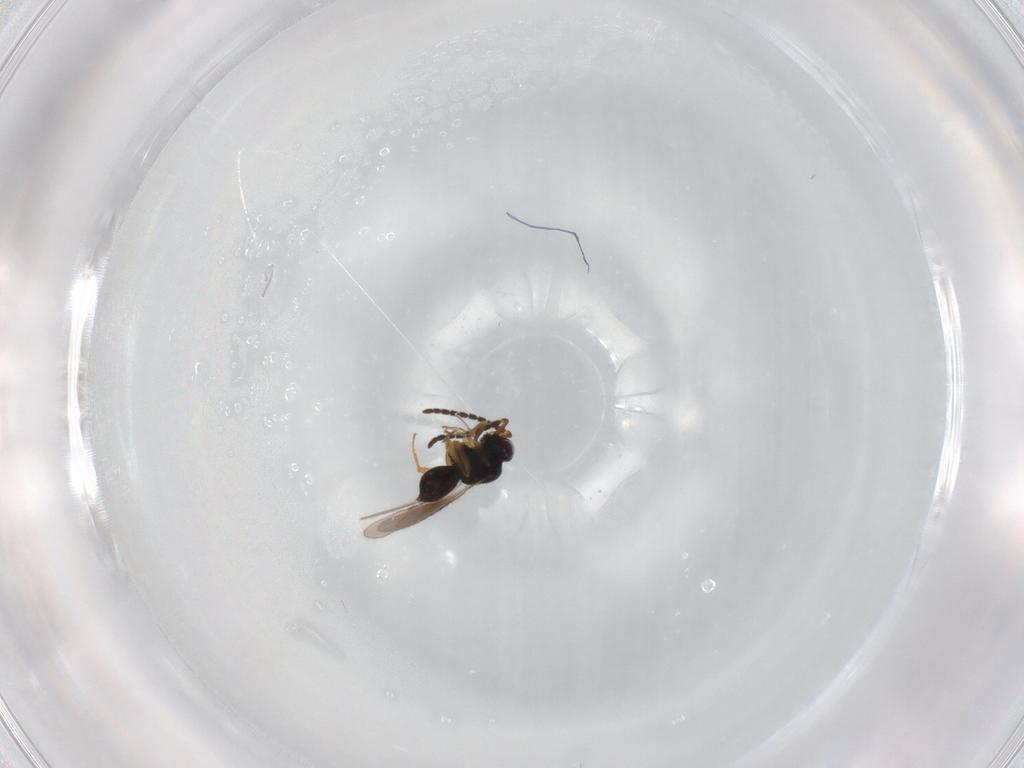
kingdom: Animalia
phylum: Arthropoda
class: Insecta
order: Hymenoptera
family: Ceraphronidae
